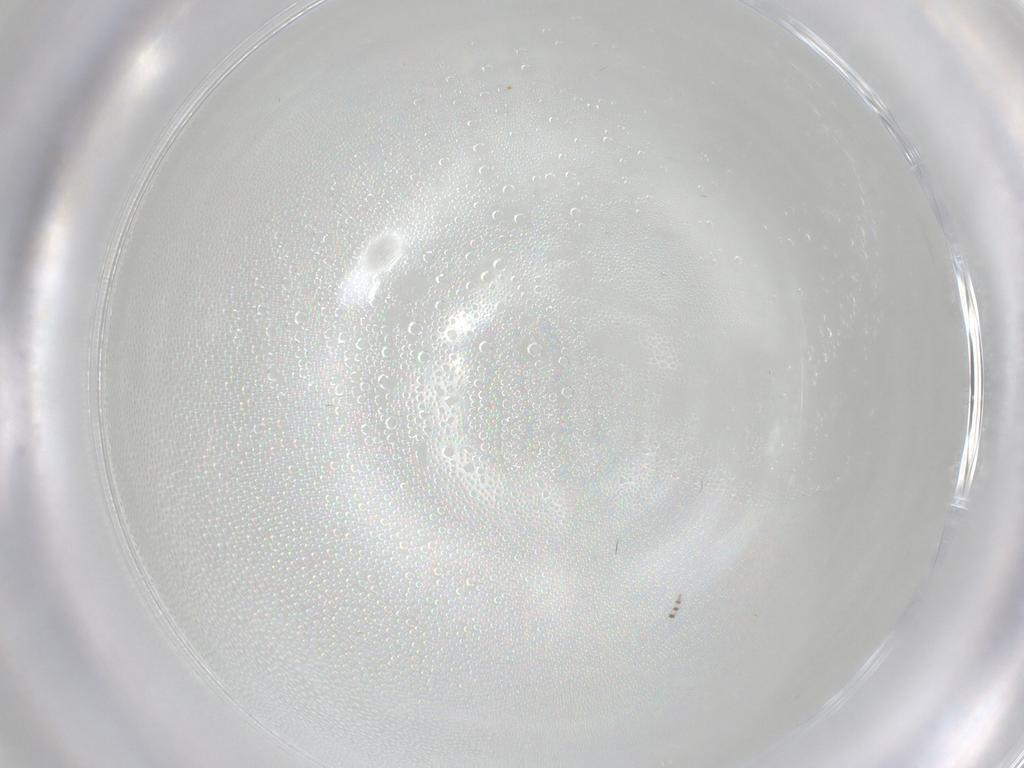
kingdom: Animalia
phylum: Arthropoda
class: Insecta
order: Diptera
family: Psychodidae
